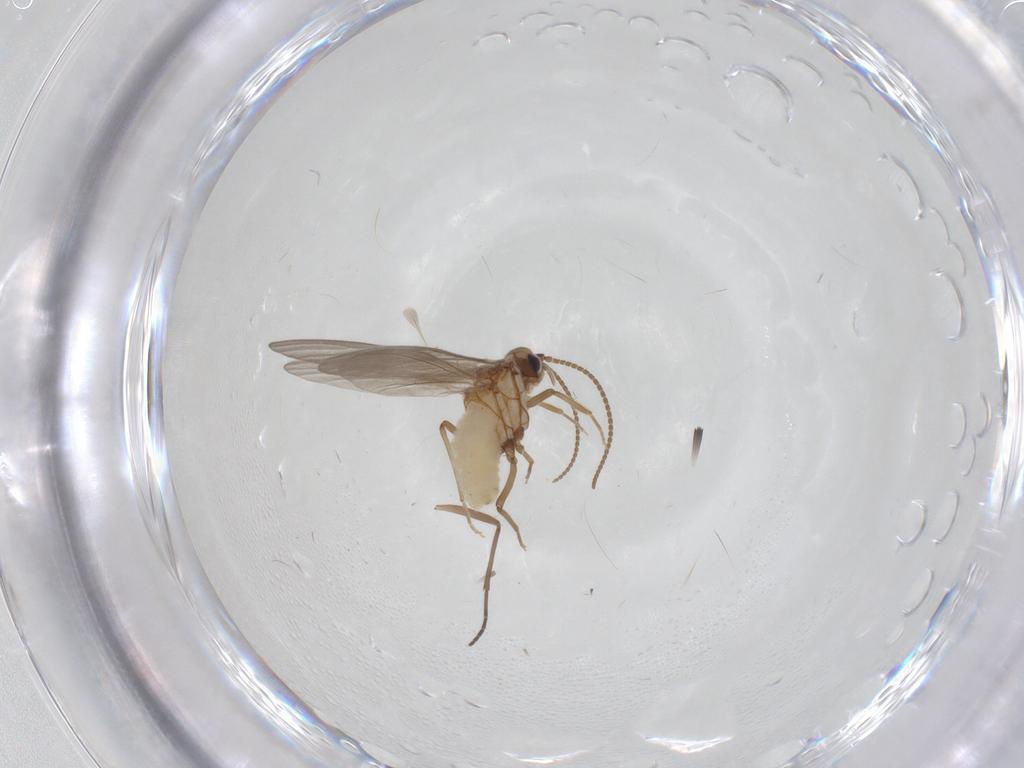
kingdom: Animalia
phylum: Arthropoda
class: Insecta
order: Neuroptera
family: Coniopterygidae
